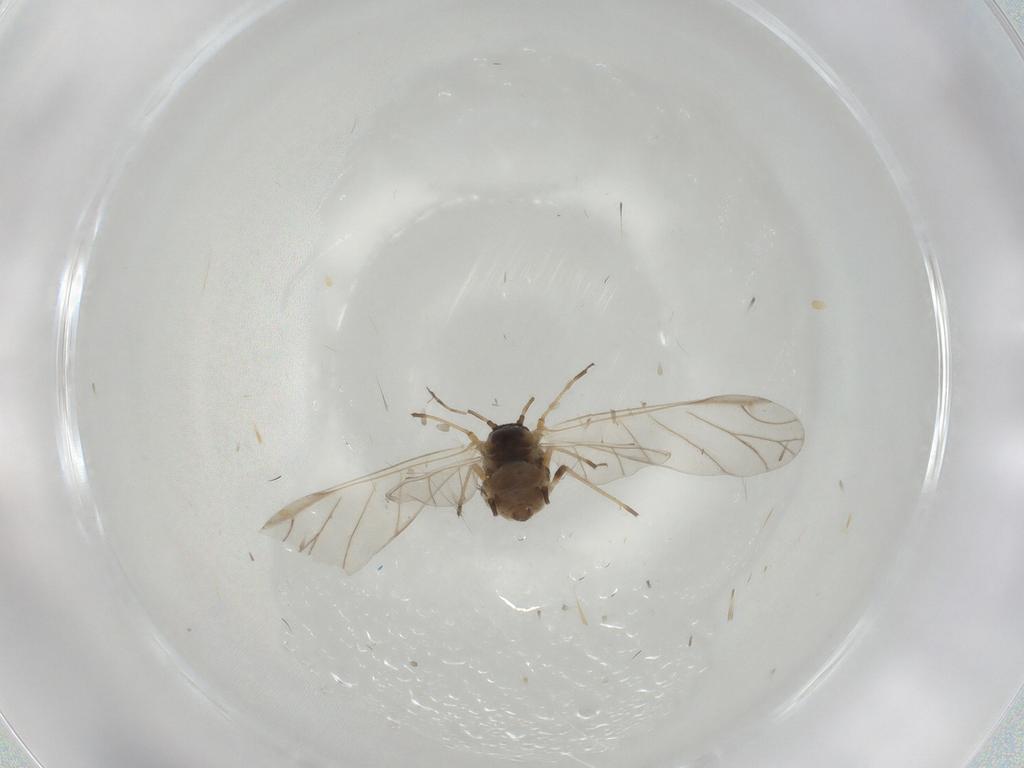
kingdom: Animalia
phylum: Arthropoda
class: Insecta
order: Hemiptera
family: Aphididae
